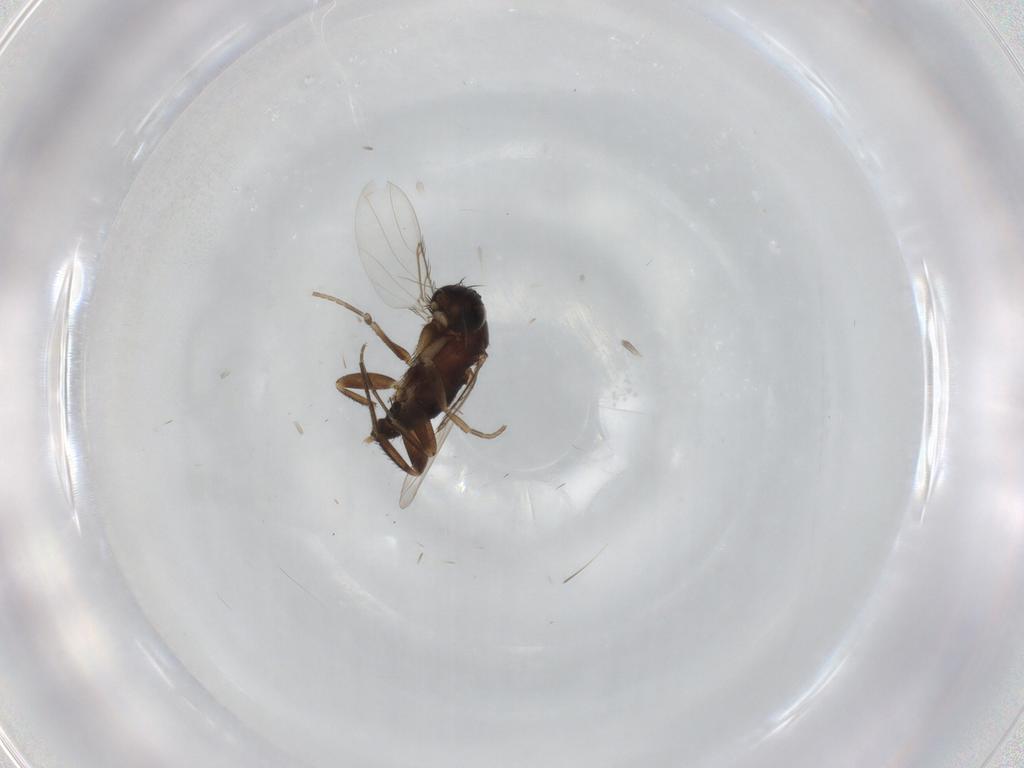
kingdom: Animalia
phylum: Arthropoda
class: Insecta
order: Diptera
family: Phoridae
